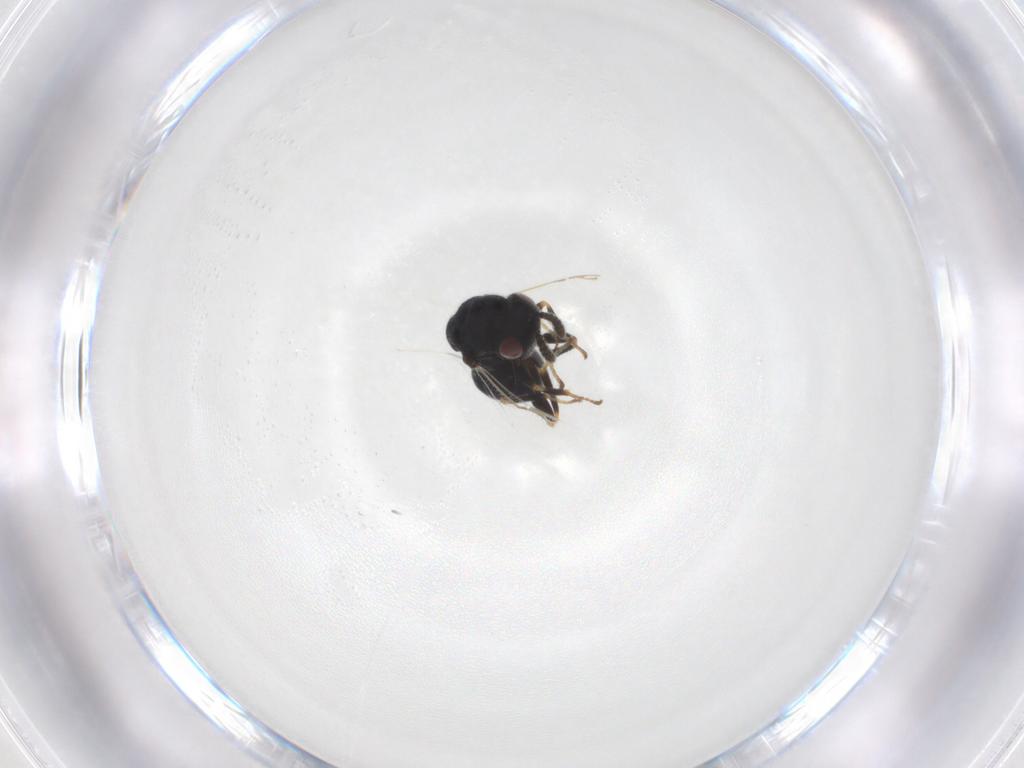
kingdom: Animalia
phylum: Arthropoda
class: Insecta
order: Hymenoptera
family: Eurytomidae
